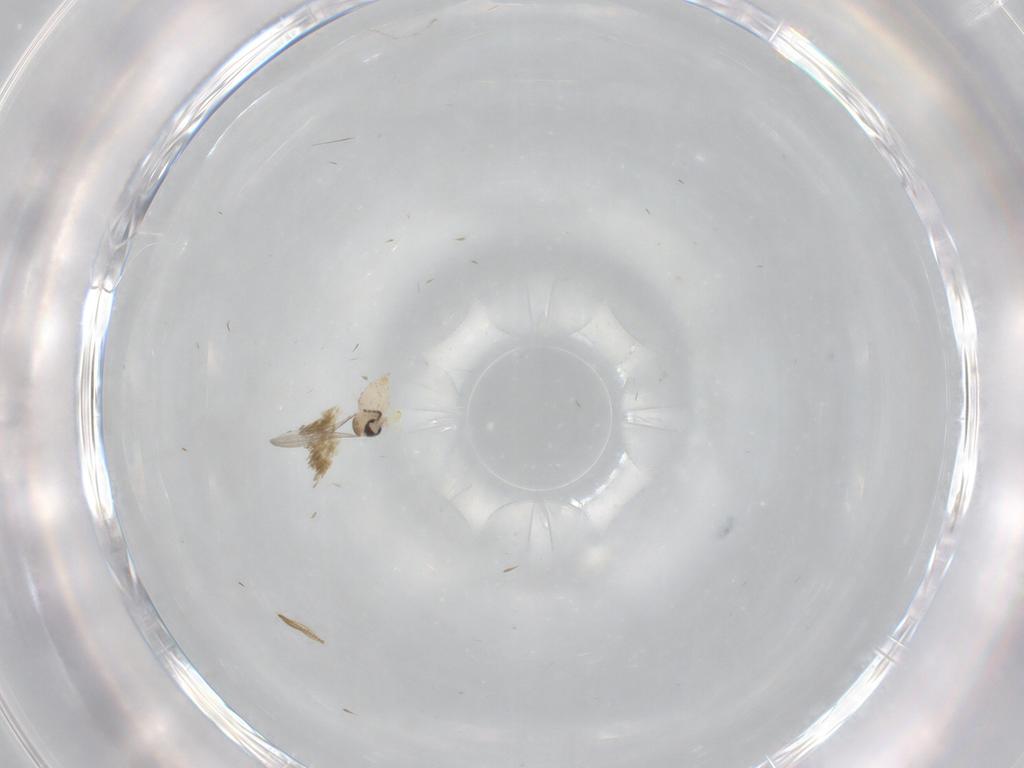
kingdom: Animalia
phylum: Arthropoda
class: Insecta
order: Diptera
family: Cecidomyiidae
